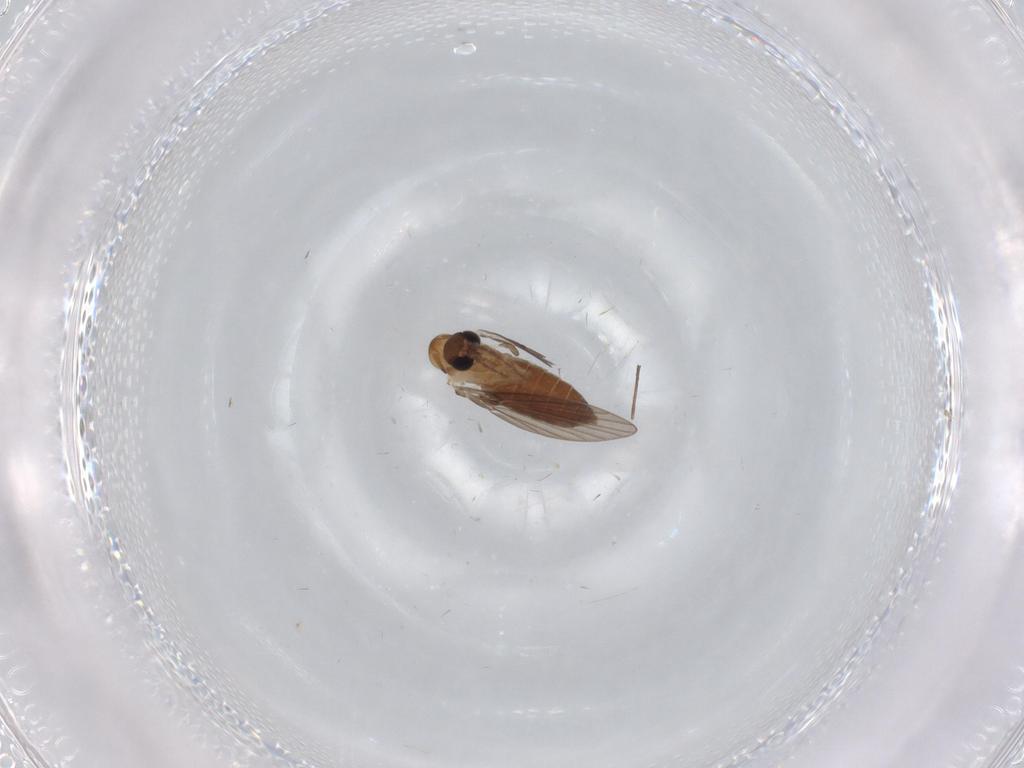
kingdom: Animalia
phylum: Arthropoda
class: Insecta
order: Diptera
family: Limoniidae
